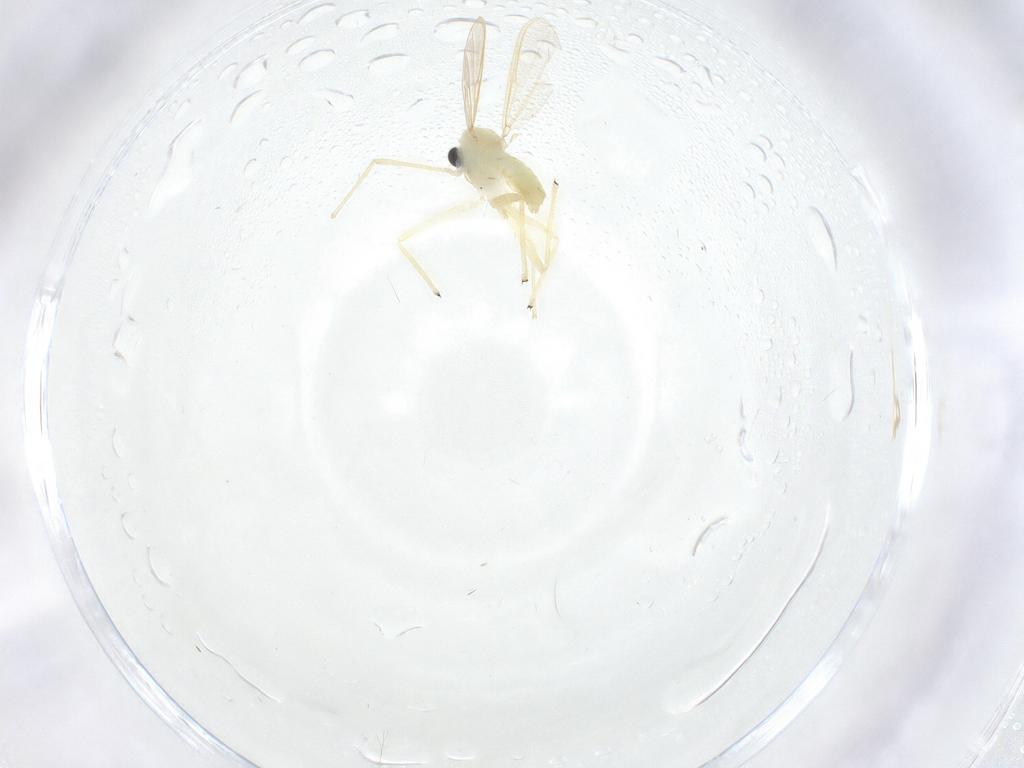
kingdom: Animalia
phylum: Arthropoda
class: Insecta
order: Diptera
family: Chironomidae
